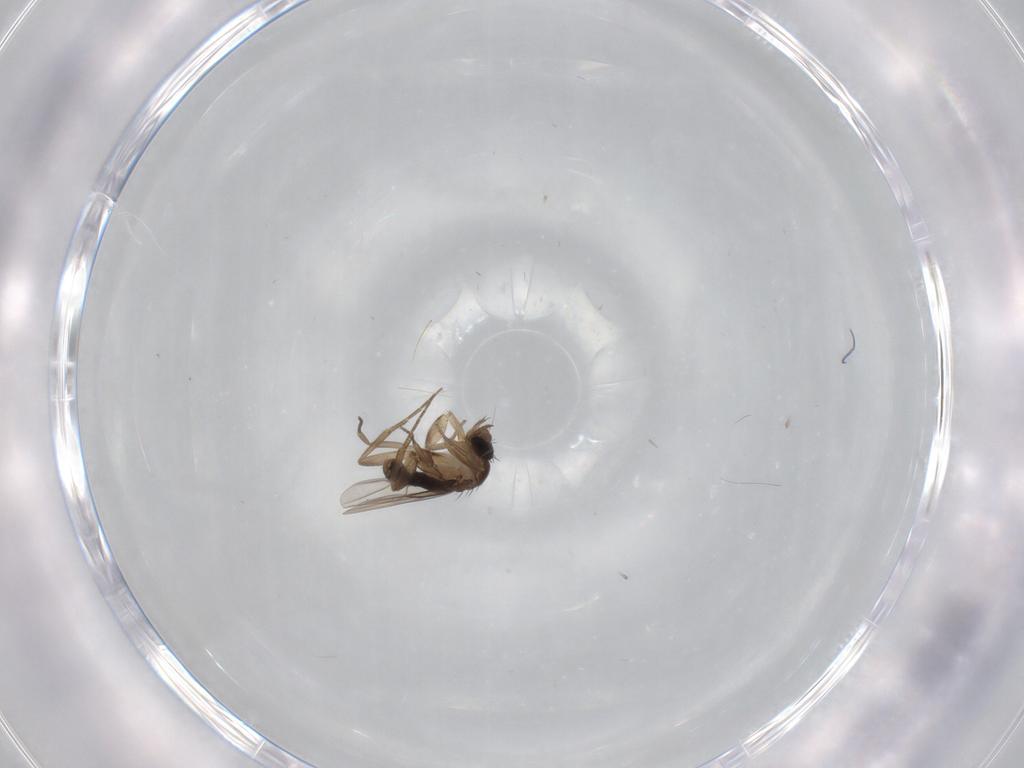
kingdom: Animalia
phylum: Arthropoda
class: Insecta
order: Diptera
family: Phoridae
